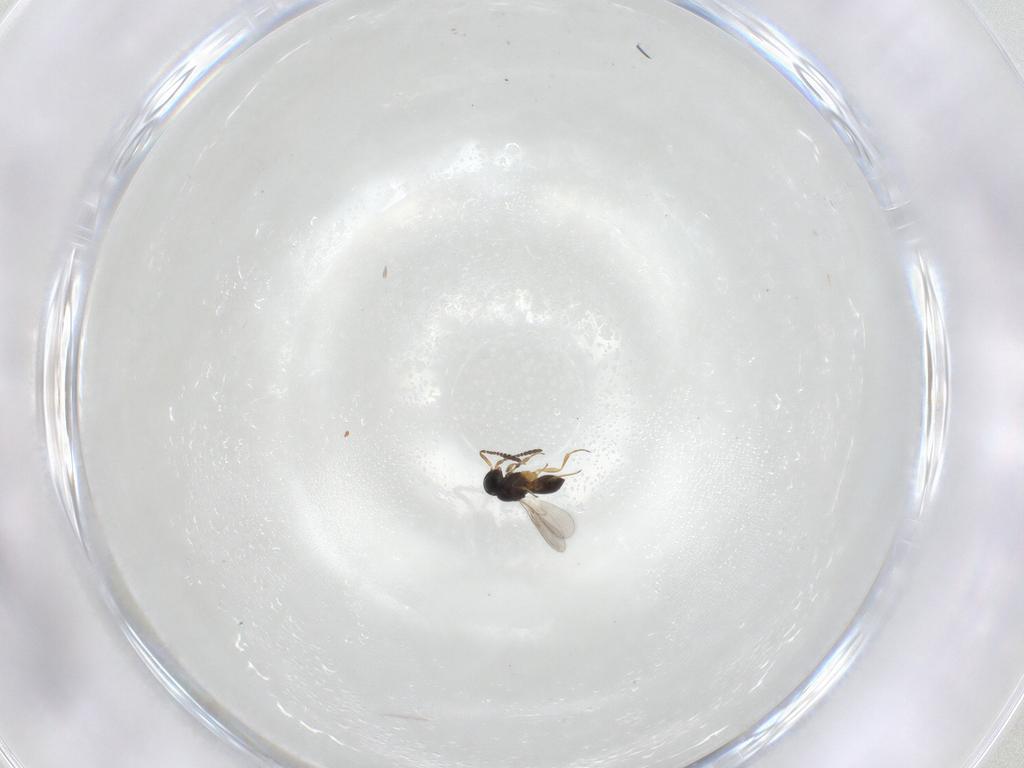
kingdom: Animalia
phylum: Arthropoda
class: Insecta
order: Hymenoptera
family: Scelionidae
